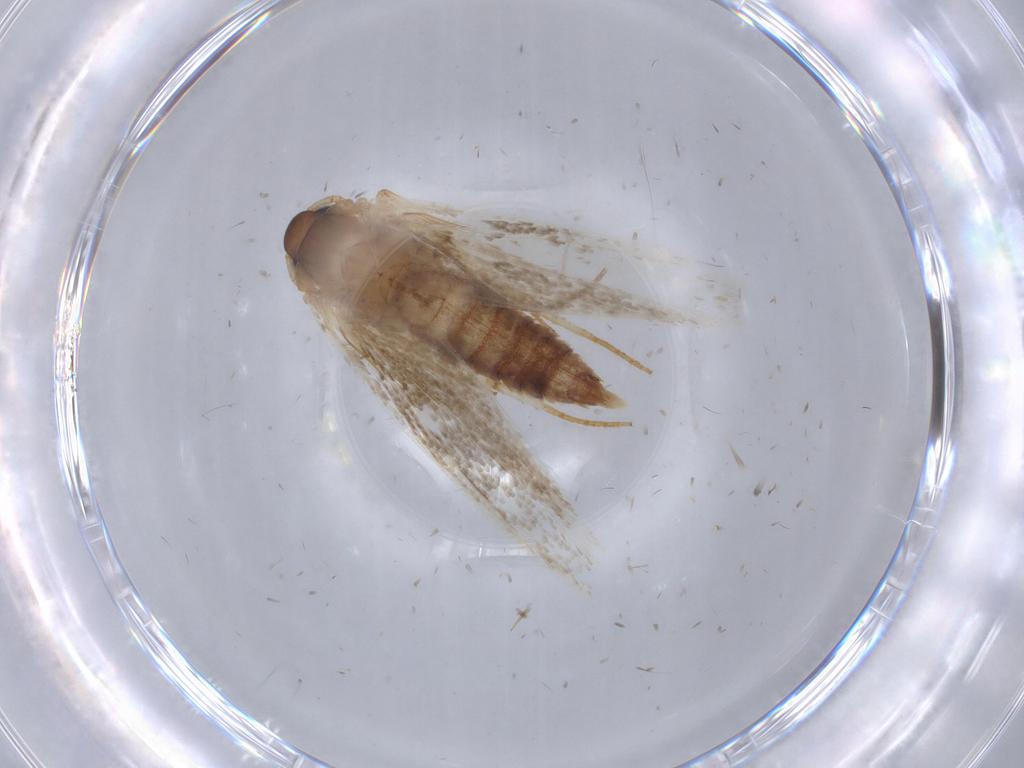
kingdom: Animalia
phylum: Arthropoda
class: Insecta
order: Lepidoptera
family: Blastobasidae
